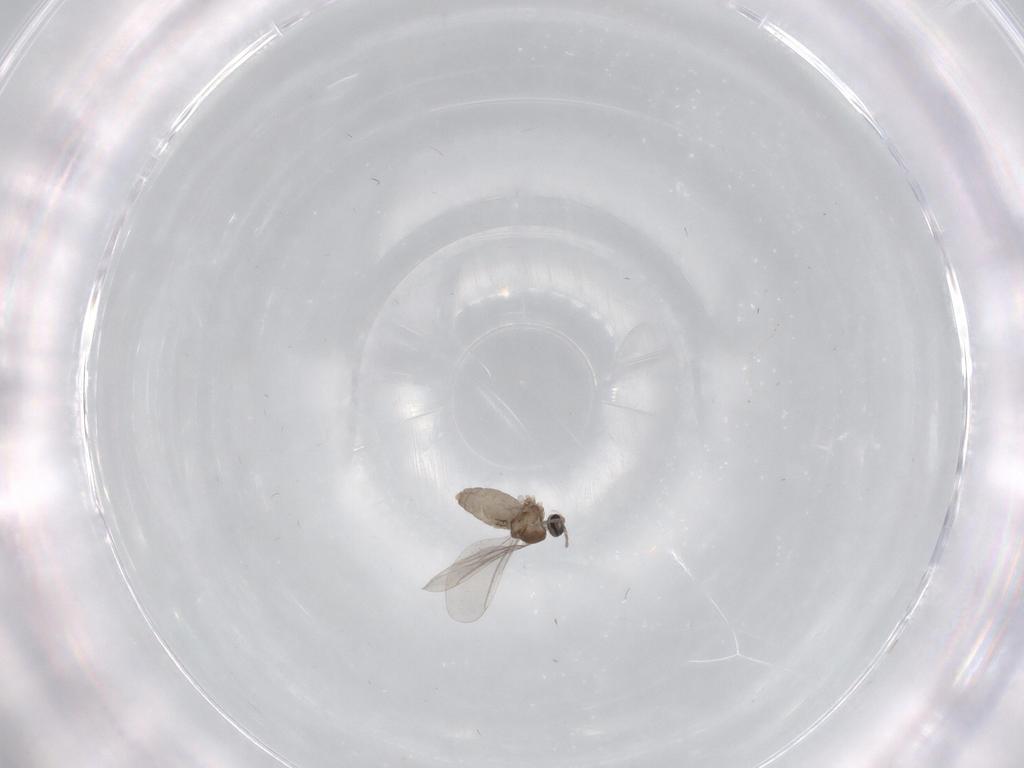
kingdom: Animalia
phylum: Arthropoda
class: Insecta
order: Diptera
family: Cecidomyiidae
